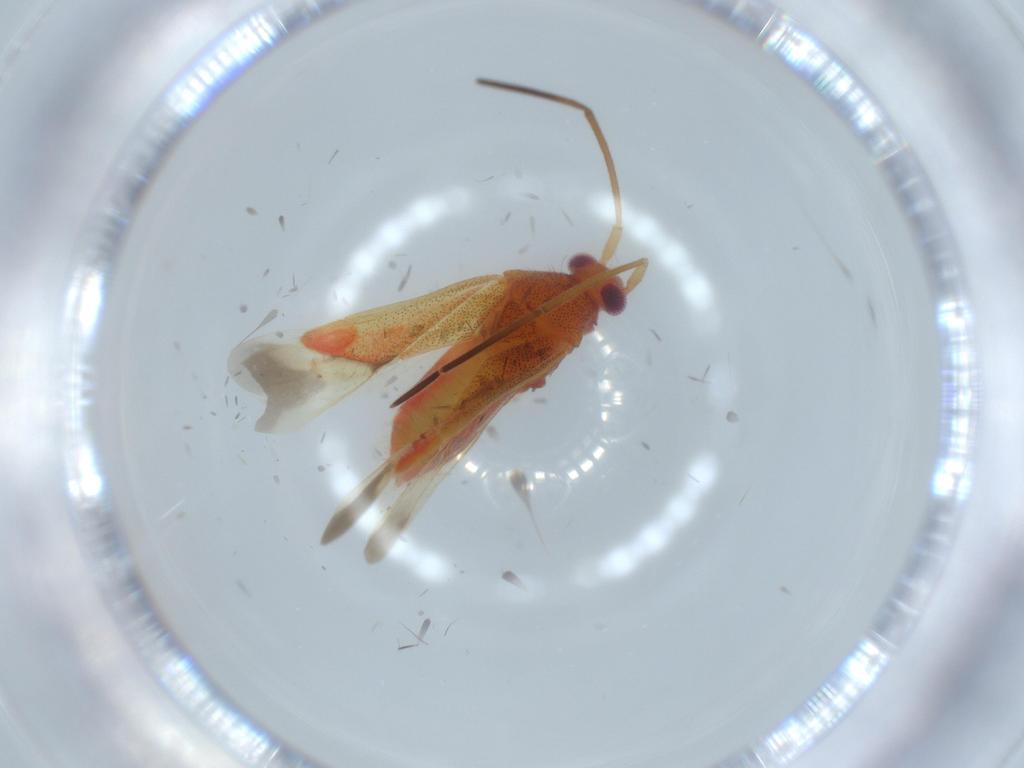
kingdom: Animalia
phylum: Arthropoda
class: Insecta
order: Hemiptera
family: Miridae
